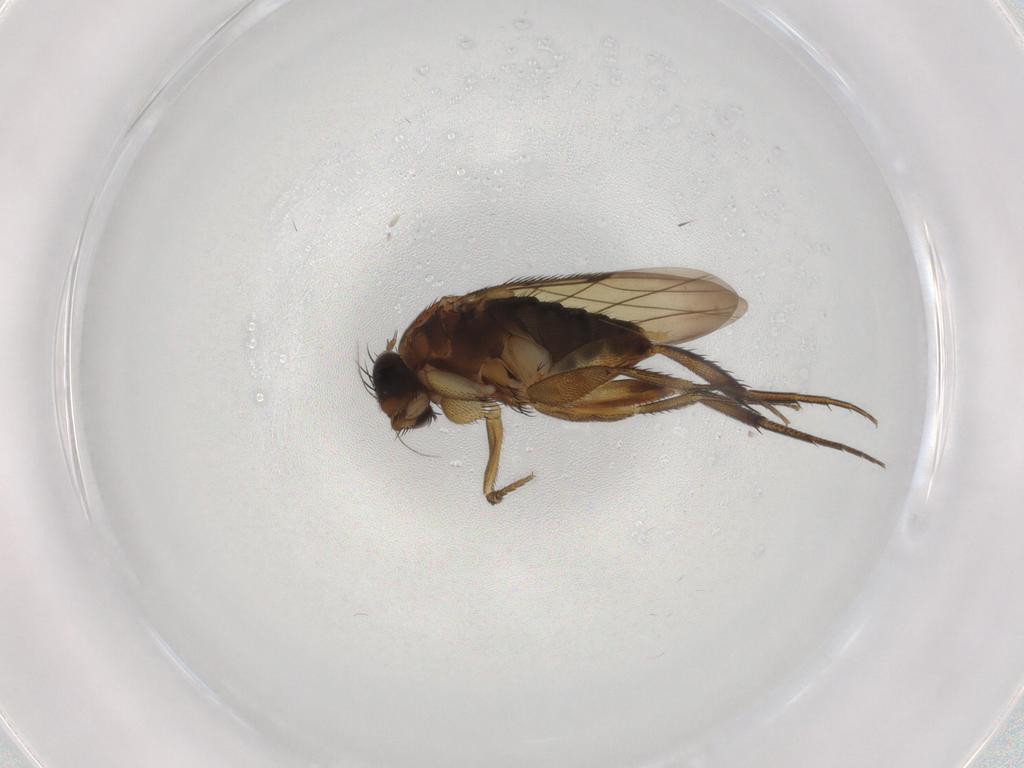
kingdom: Animalia
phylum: Arthropoda
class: Insecta
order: Diptera
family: Phoridae
